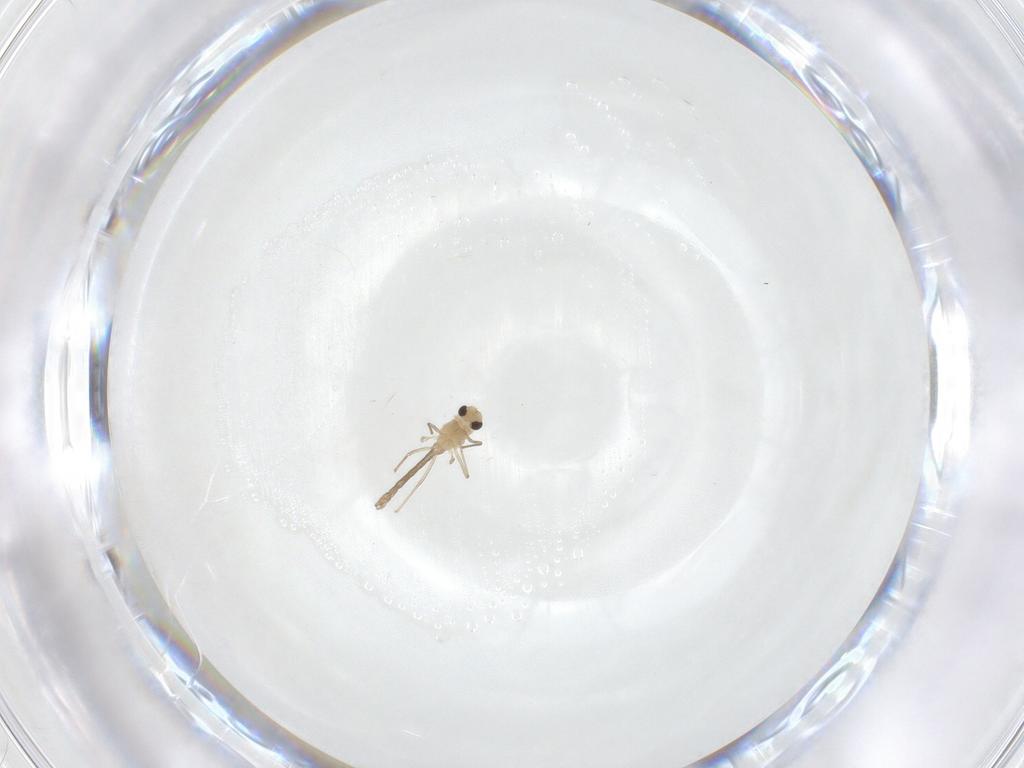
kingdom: Animalia
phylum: Arthropoda
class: Insecta
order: Diptera
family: Chironomidae
